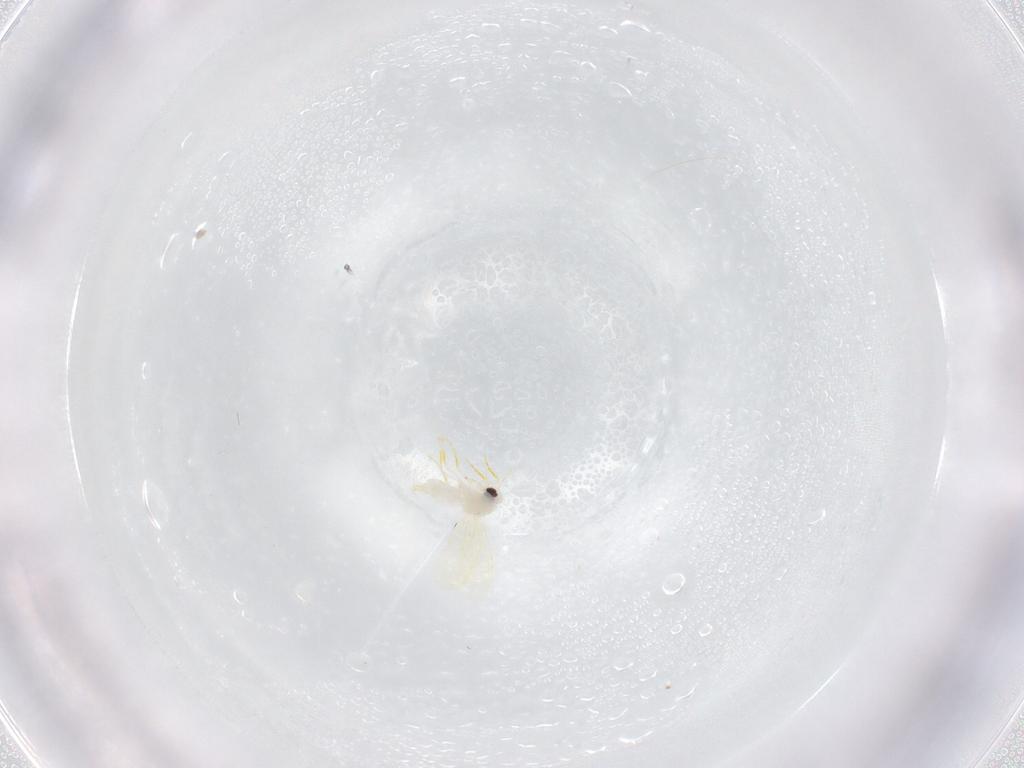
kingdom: Animalia
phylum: Arthropoda
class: Insecta
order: Hemiptera
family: Aleyrodidae
